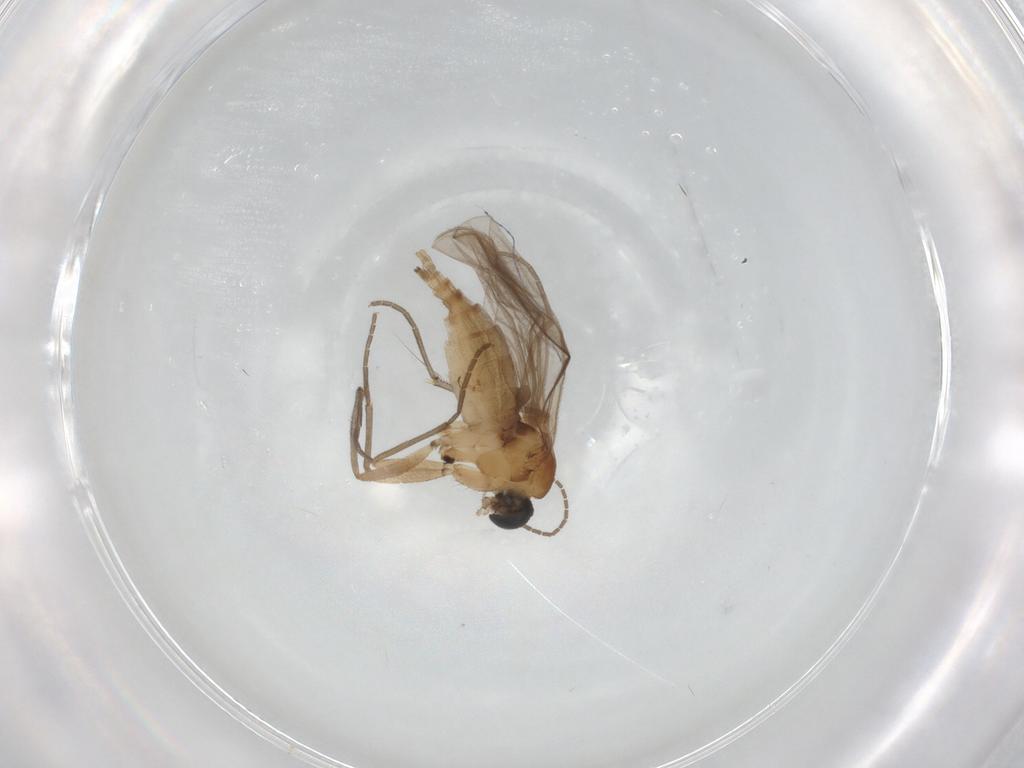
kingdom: Animalia
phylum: Arthropoda
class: Insecta
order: Diptera
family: Sciaridae
